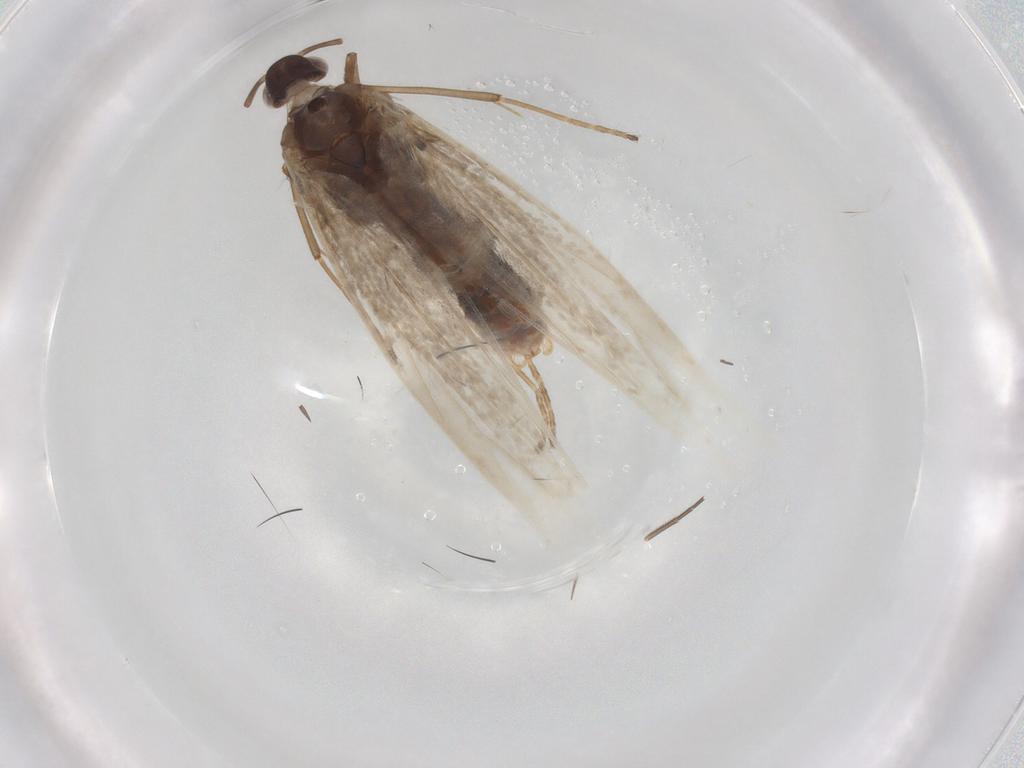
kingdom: Animalia
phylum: Arthropoda
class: Insecta
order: Lepidoptera
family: Coleophoridae
